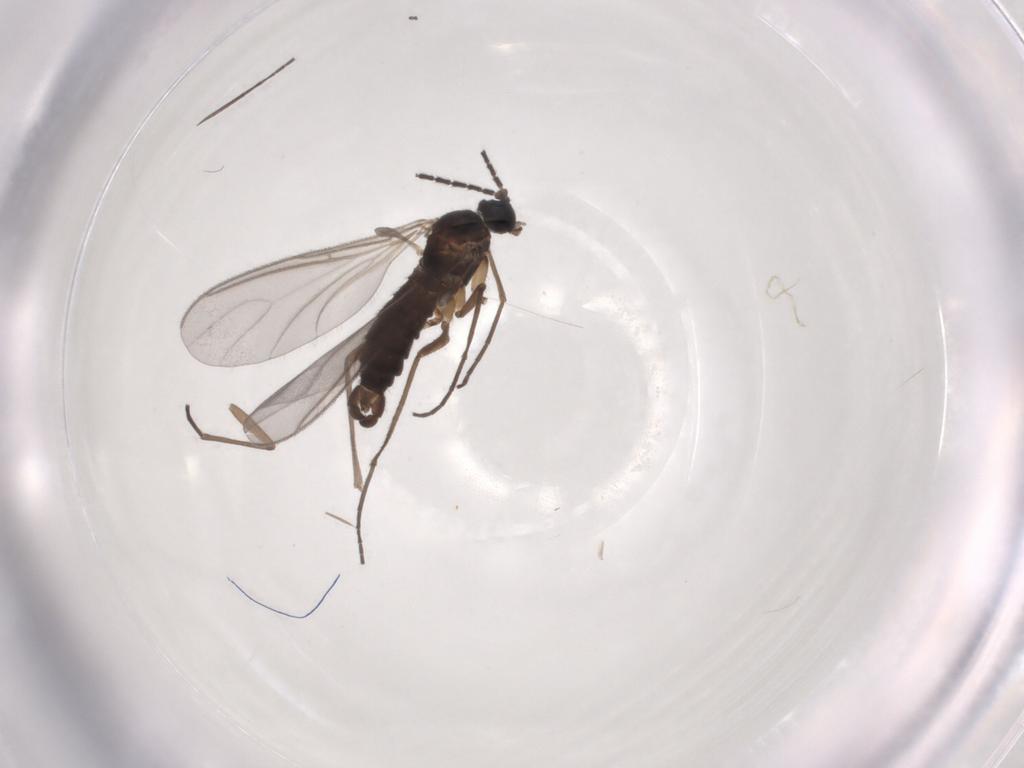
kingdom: Animalia
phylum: Arthropoda
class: Insecta
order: Diptera
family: Sciaridae
